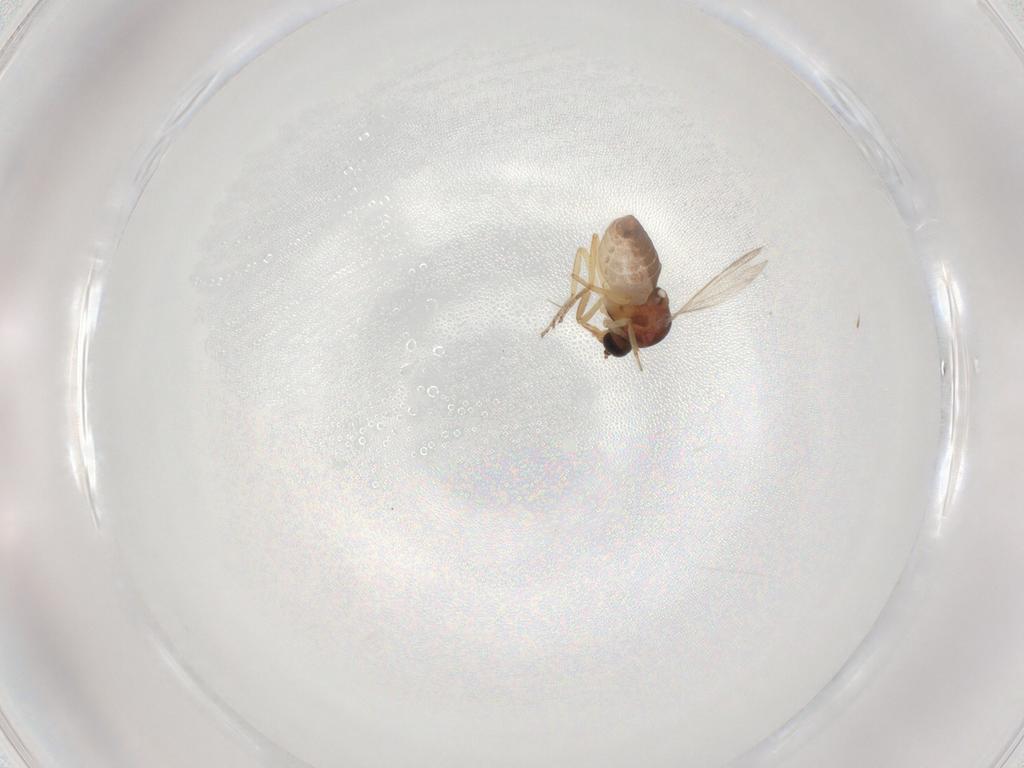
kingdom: Animalia
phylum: Arthropoda
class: Insecta
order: Diptera
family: Ceratopogonidae
